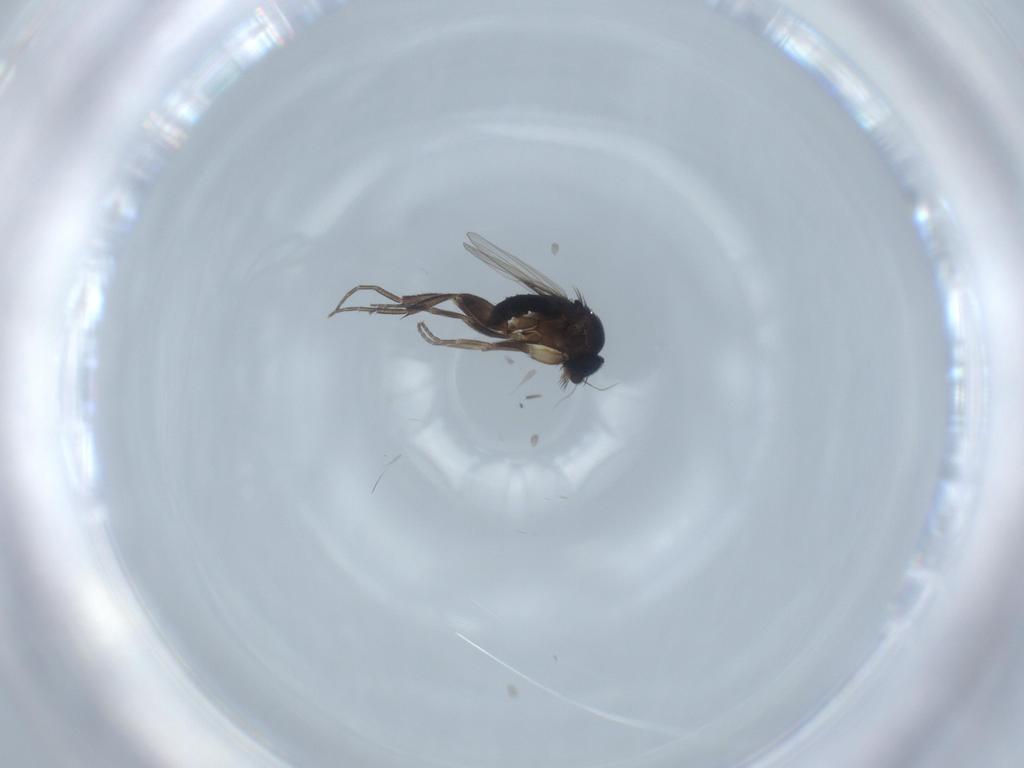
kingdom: Animalia
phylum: Arthropoda
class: Insecta
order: Diptera
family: Phoridae
